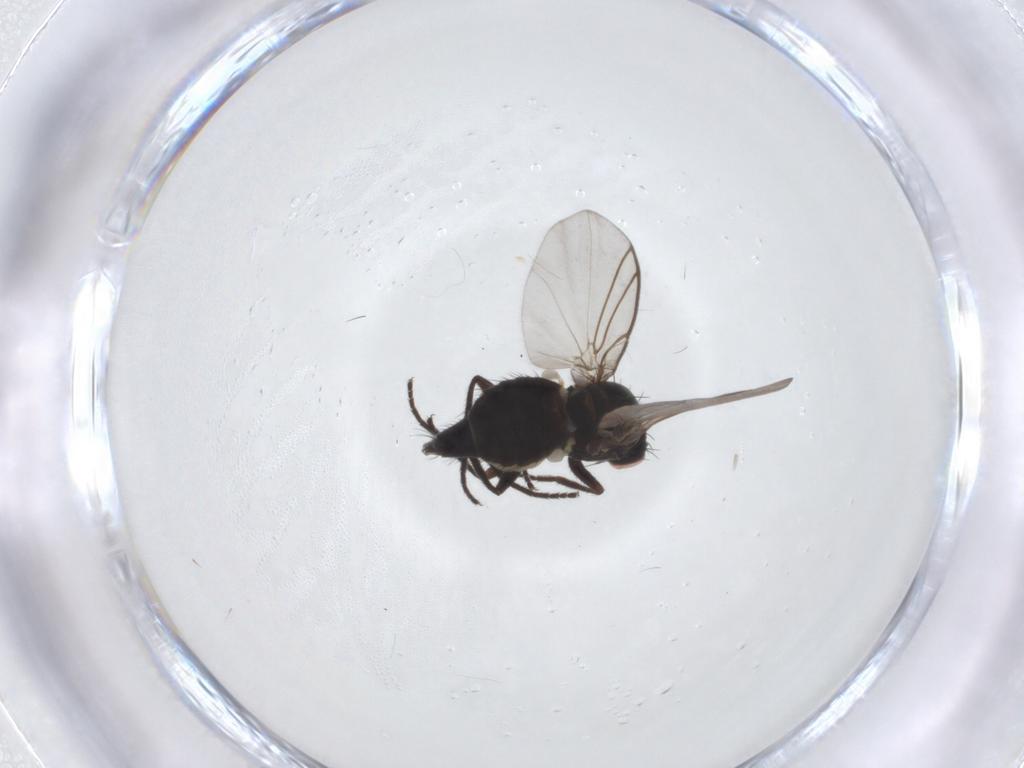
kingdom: Animalia
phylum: Arthropoda
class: Insecta
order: Diptera
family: Agromyzidae
